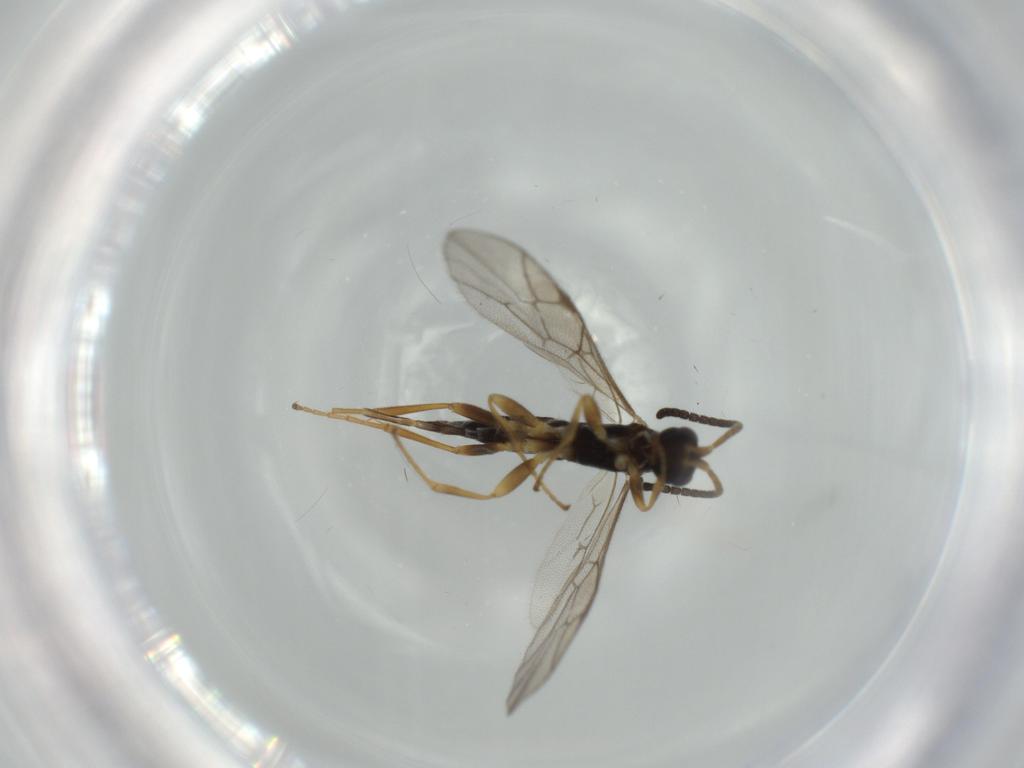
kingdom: Animalia
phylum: Arthropoda
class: Insecta
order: Hymenoptera
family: Ichneumonidae
